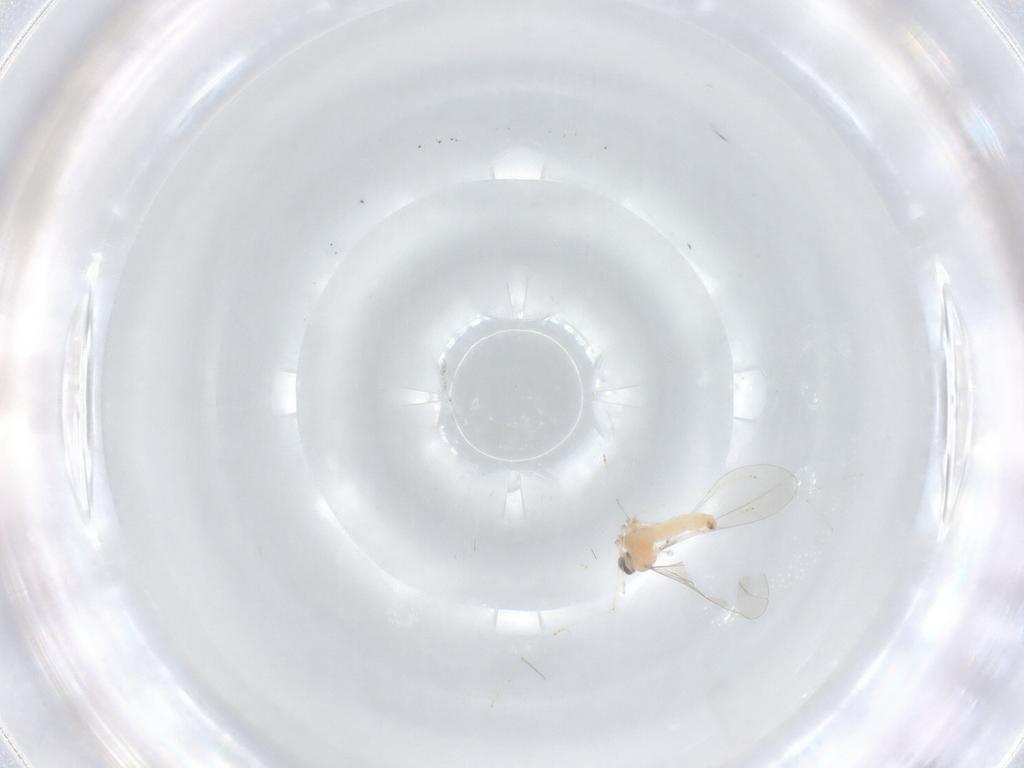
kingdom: Animalia
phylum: Arthropoda
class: Insecta
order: Diptera
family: Cecidomyiidae
